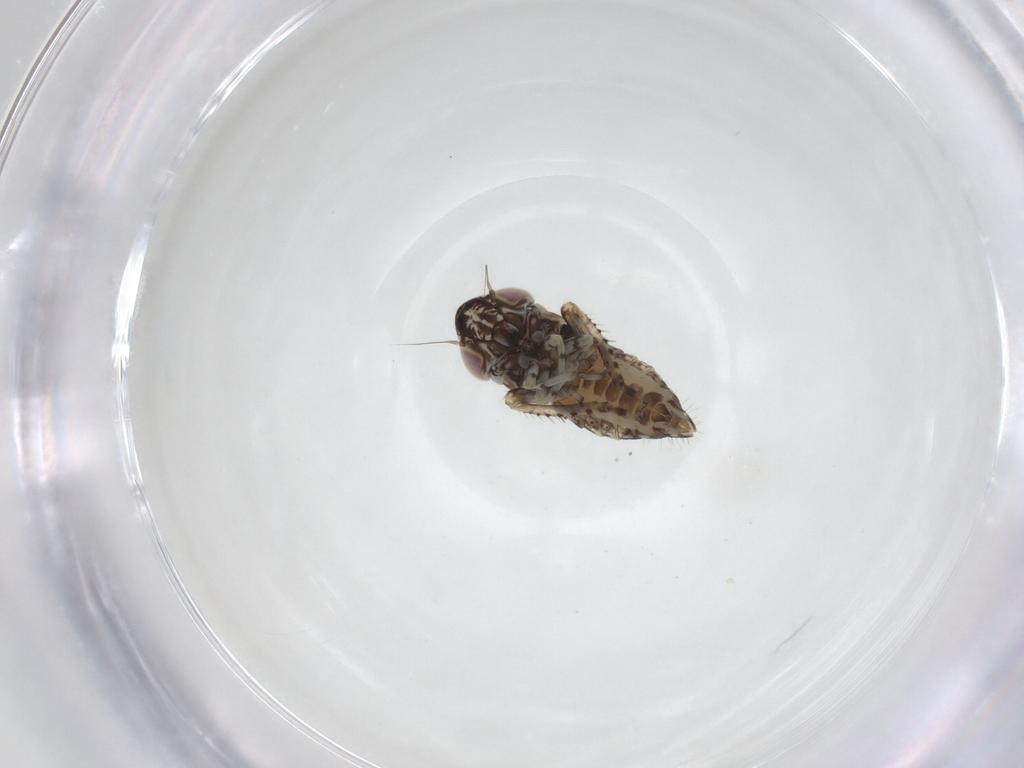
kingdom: Animalia
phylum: Arthropoda
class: Insecta
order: Hemiptera
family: Cicadellidae
